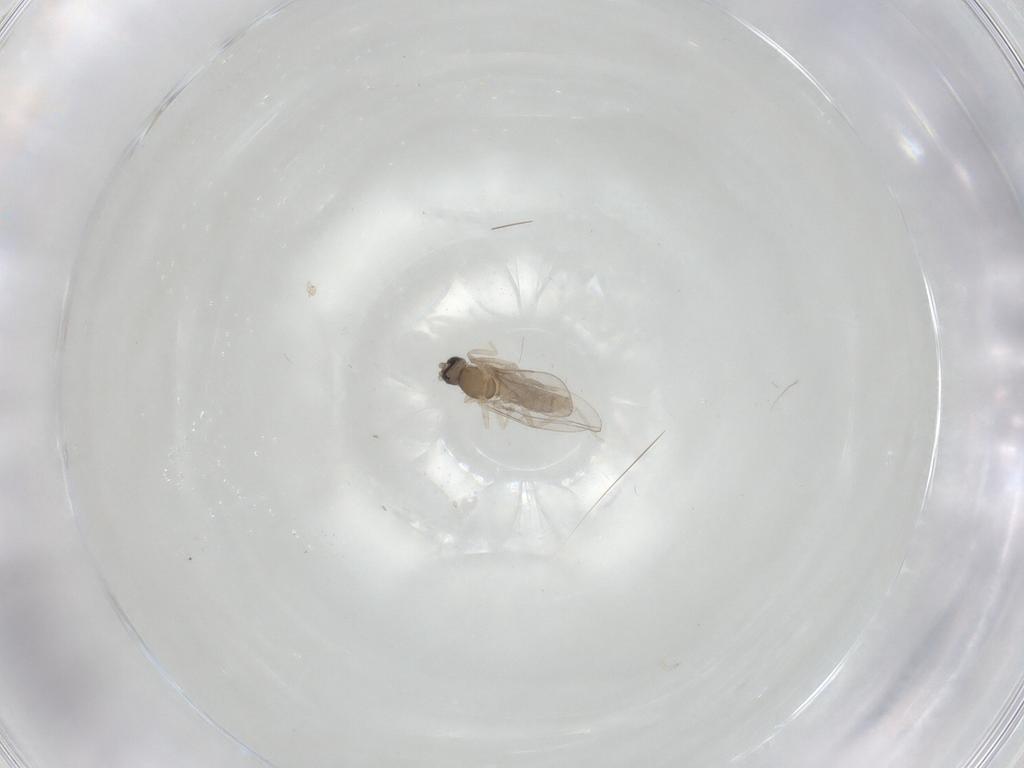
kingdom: Animalia
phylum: Arthropoda
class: Insecta
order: Diptera
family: Cecidomyiidae
